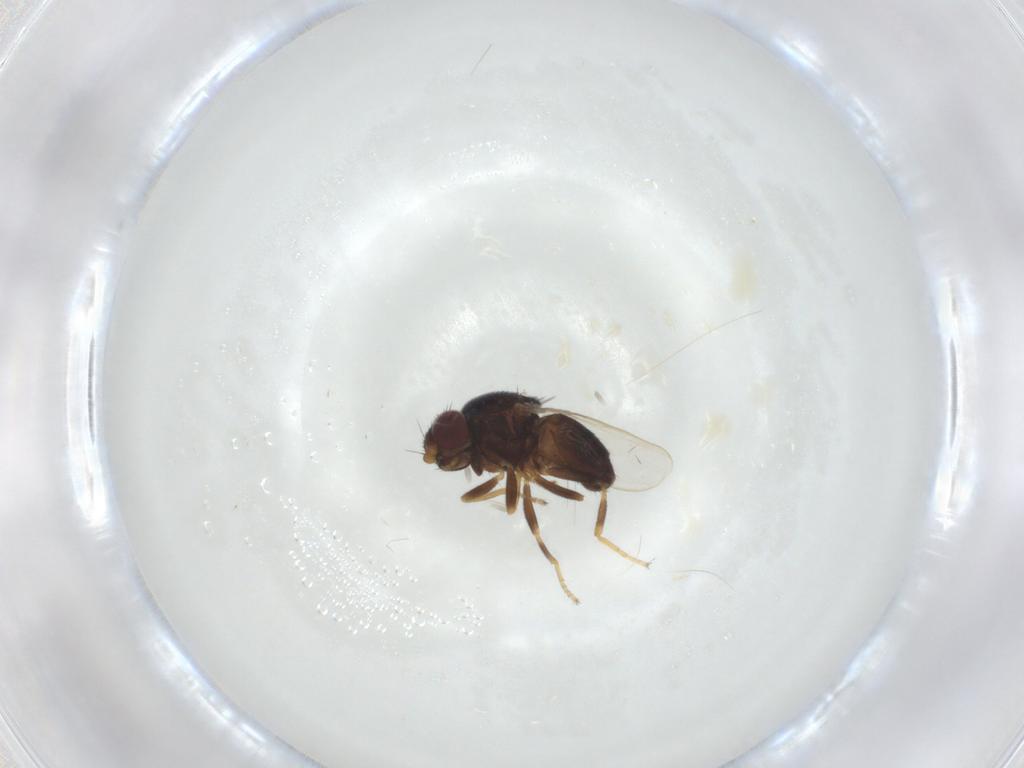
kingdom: Animalia
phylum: Arthropoda
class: Insecta
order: Diptera
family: Chloropidae
